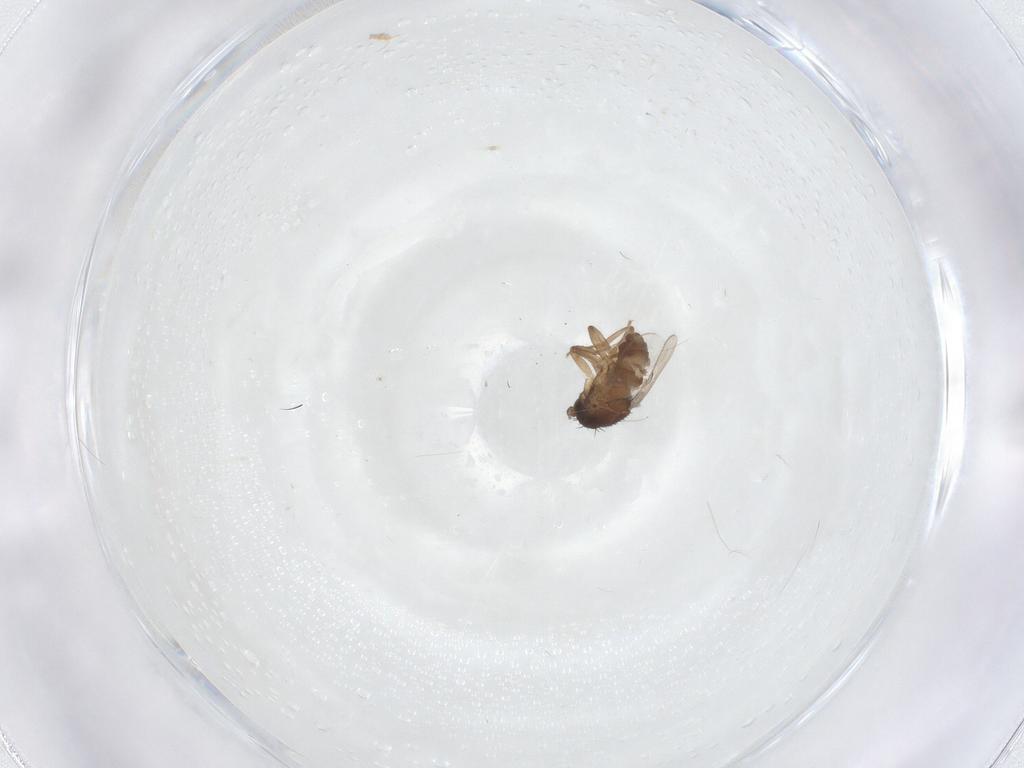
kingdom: Animalia
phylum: Arthropoda
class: Insecta
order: Diptera
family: Sphaeroceridae
